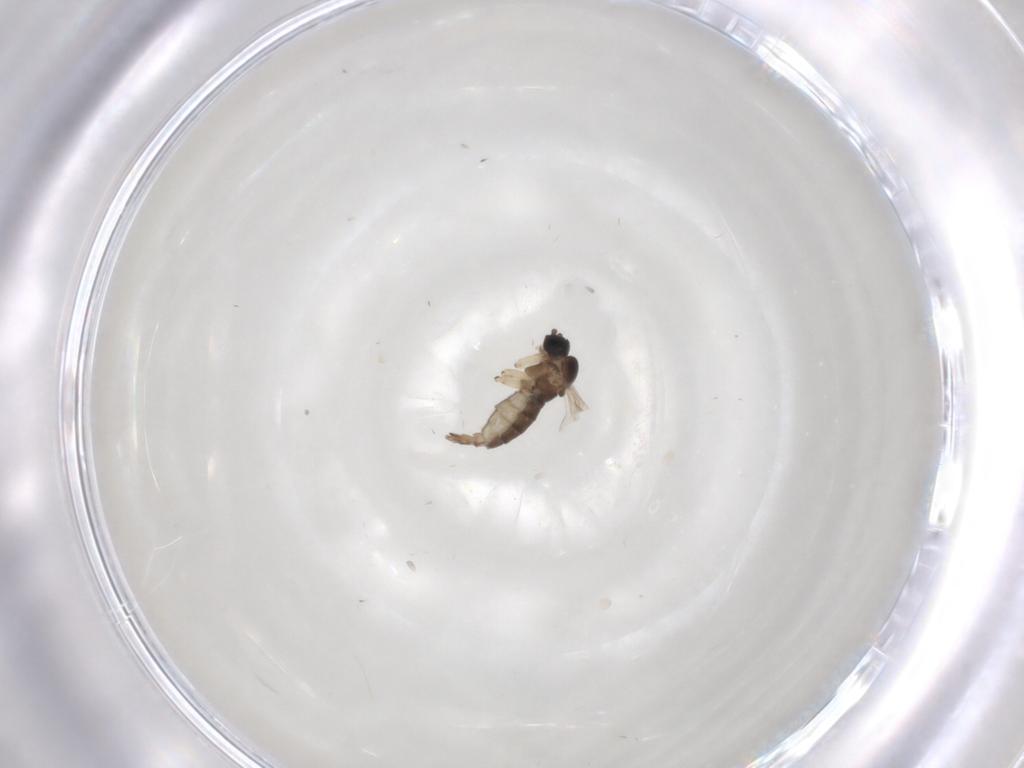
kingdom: Animalia
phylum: Arthropoda
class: Insecta
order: Diptera
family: Sciaridae
